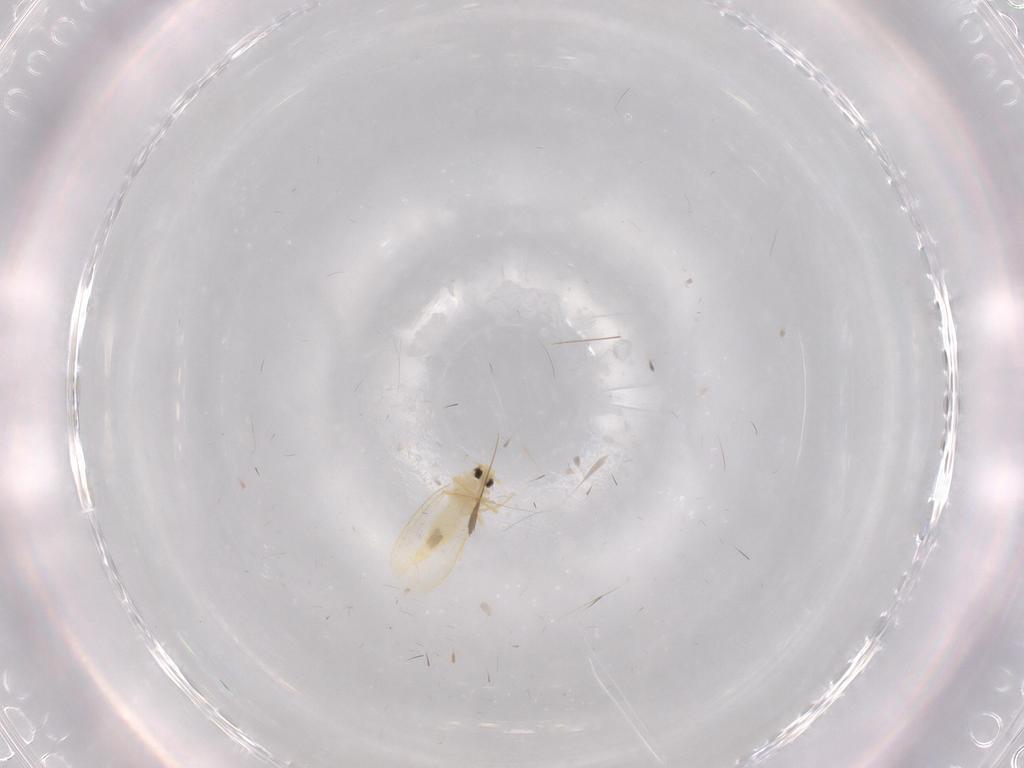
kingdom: Animalia
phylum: Arthropoda
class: Insecta
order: Hemiptera
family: Aleyrodidae
